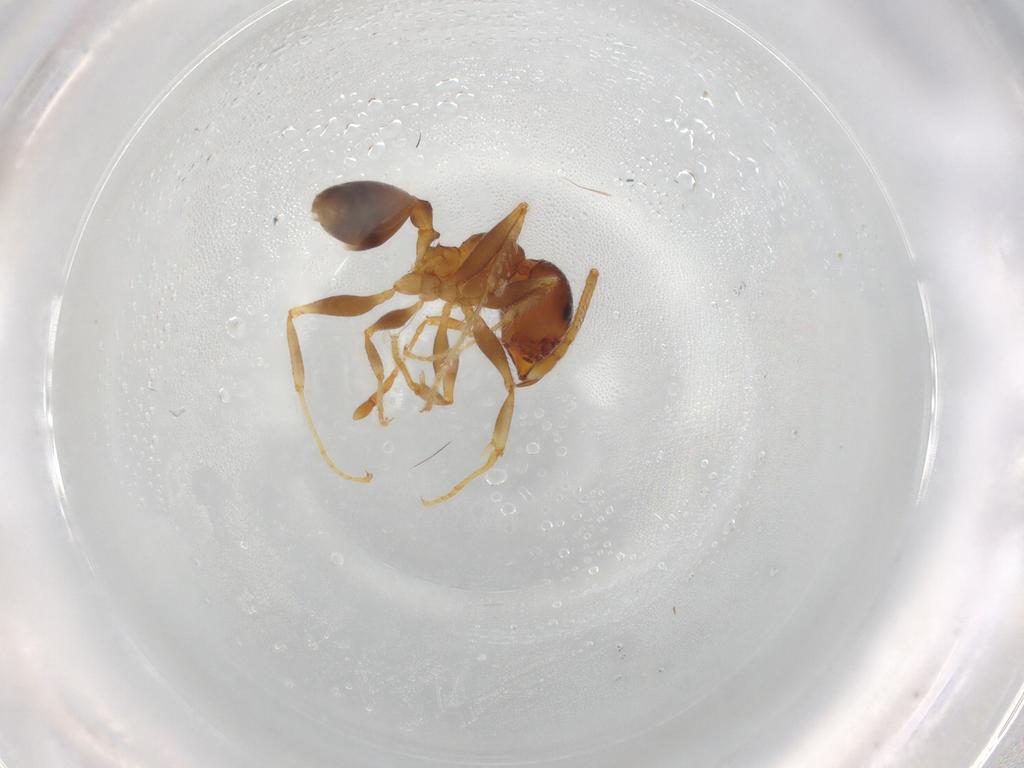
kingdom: Animalia
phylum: Arthropoda
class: Insecta
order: Hymenoptera
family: Formicidae
